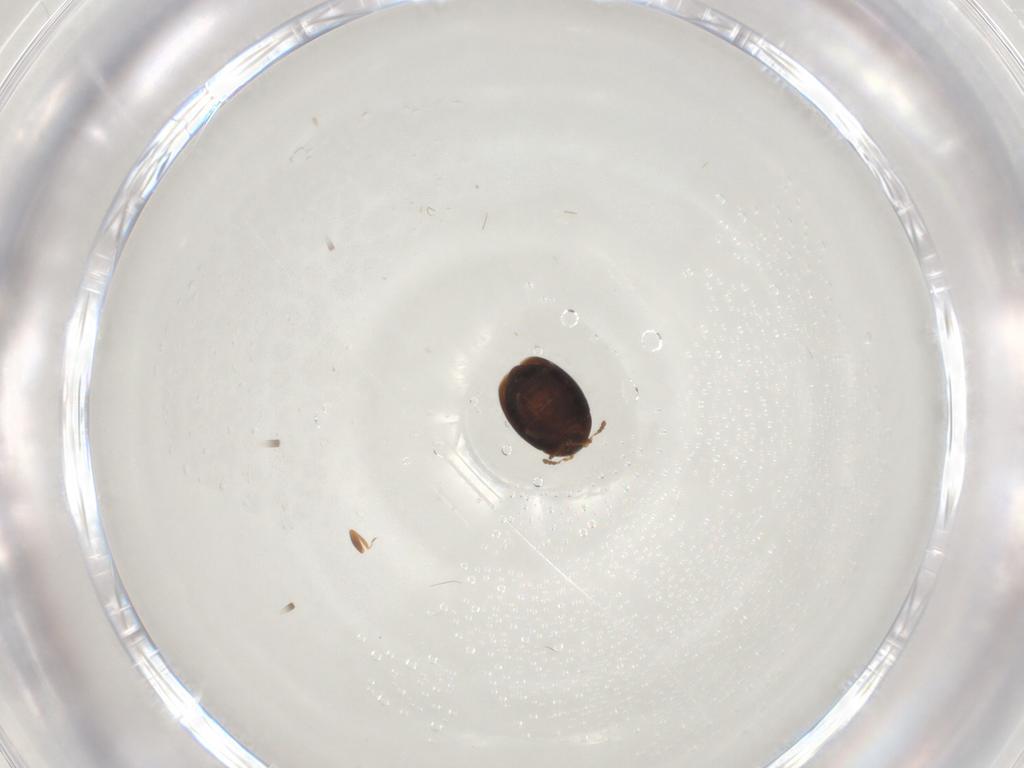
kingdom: Animalia
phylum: Arthropoda
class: Insecta
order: Coleoptera
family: Corylophidae
